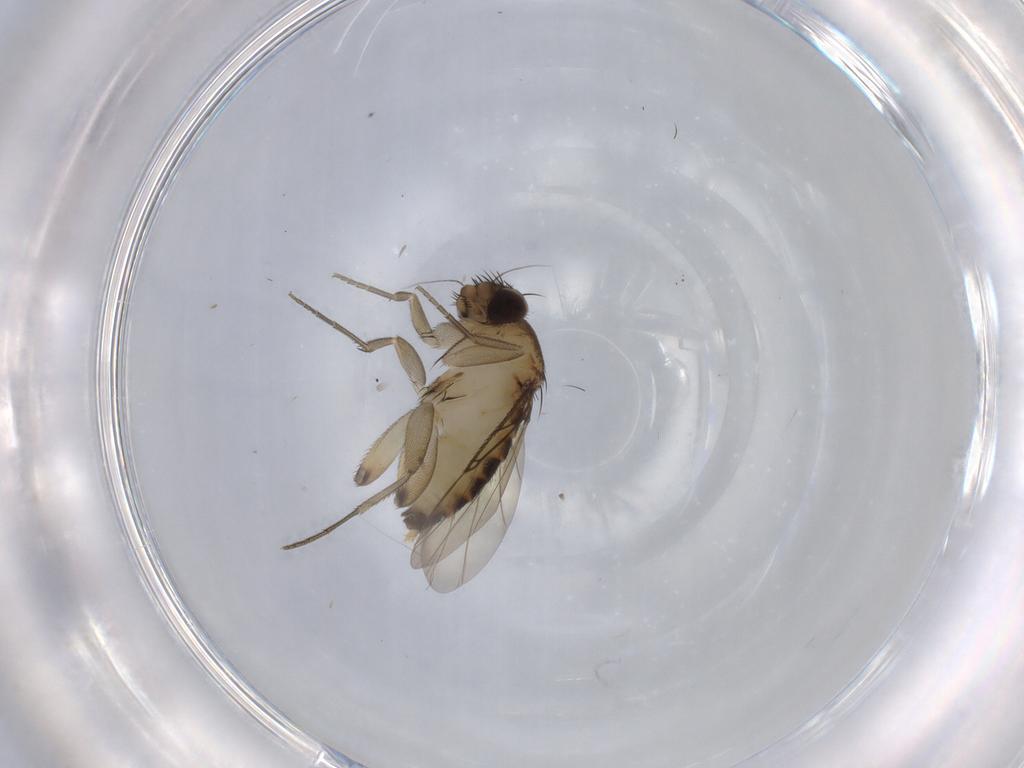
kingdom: Animalia
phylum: Arthropoda
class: Insecta
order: Diptera
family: Phoridae
